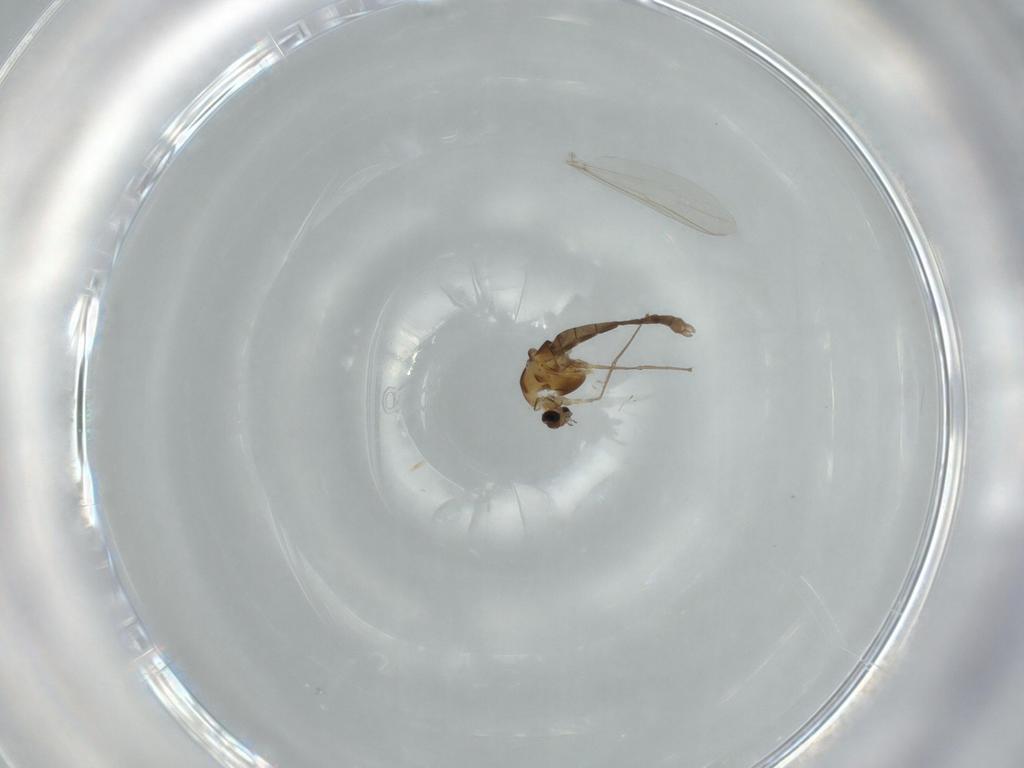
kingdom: Animalia
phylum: Arthropoda
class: Insecta
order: Diptera
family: Chironomidae
